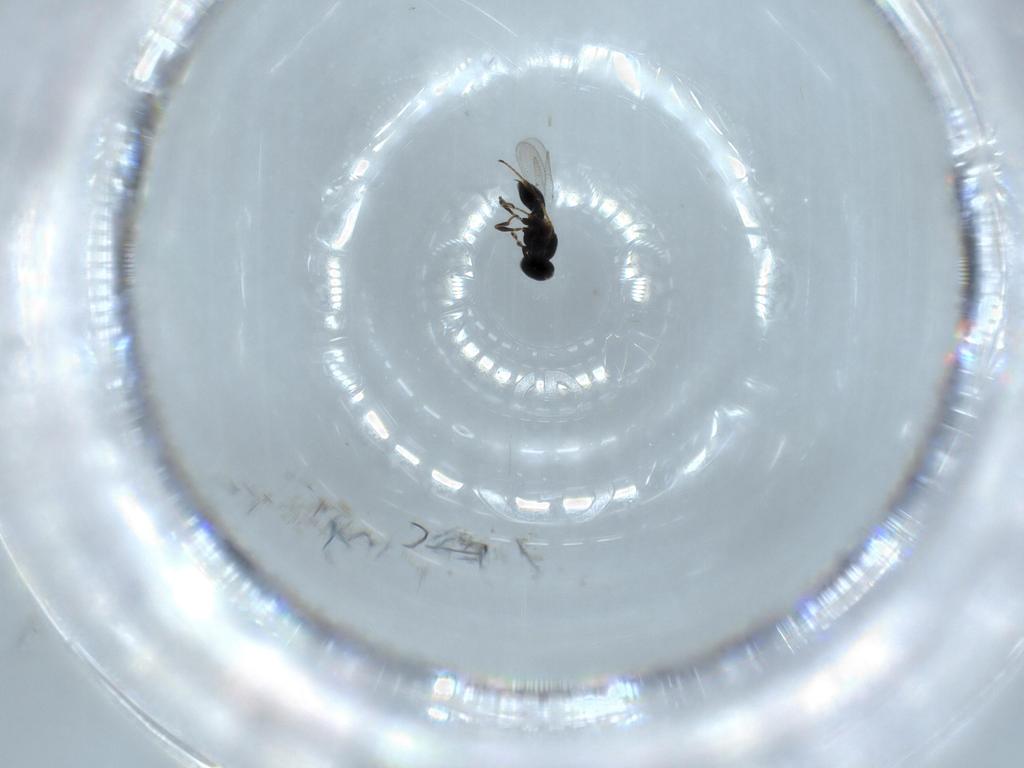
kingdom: Animalia
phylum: Arthropoda
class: Insecta
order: Hymenoptera
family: Platygastridae
